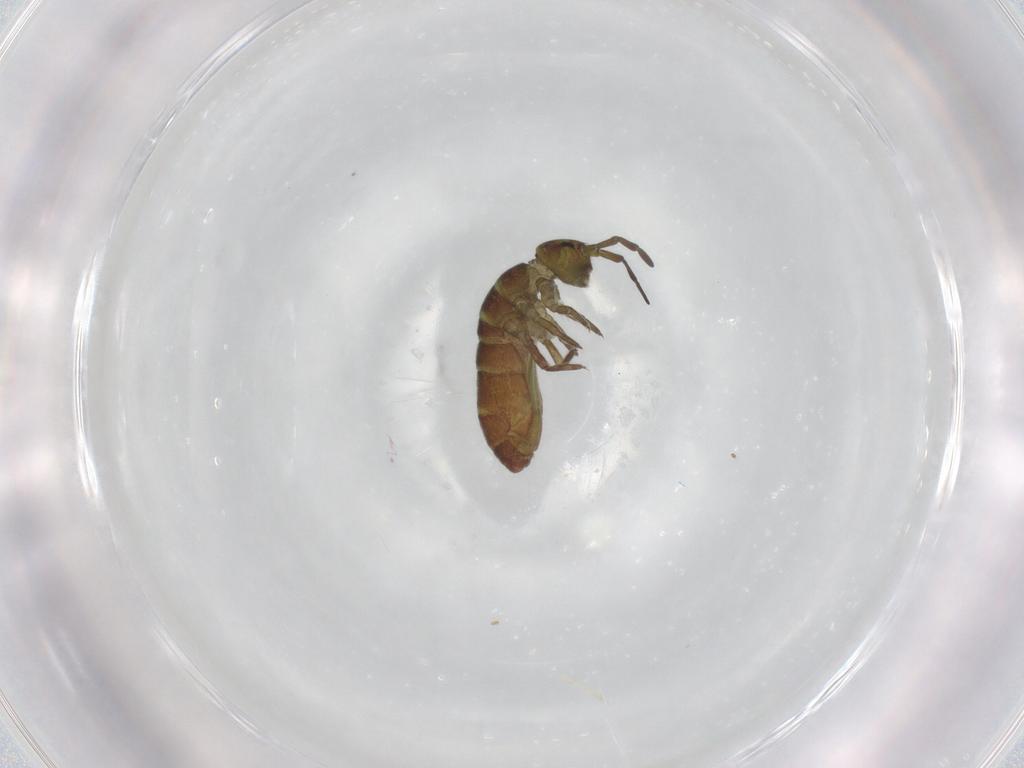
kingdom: Animalia
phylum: Arthropoda
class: Collembola
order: Entomobryomorpha
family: Isotomidae
